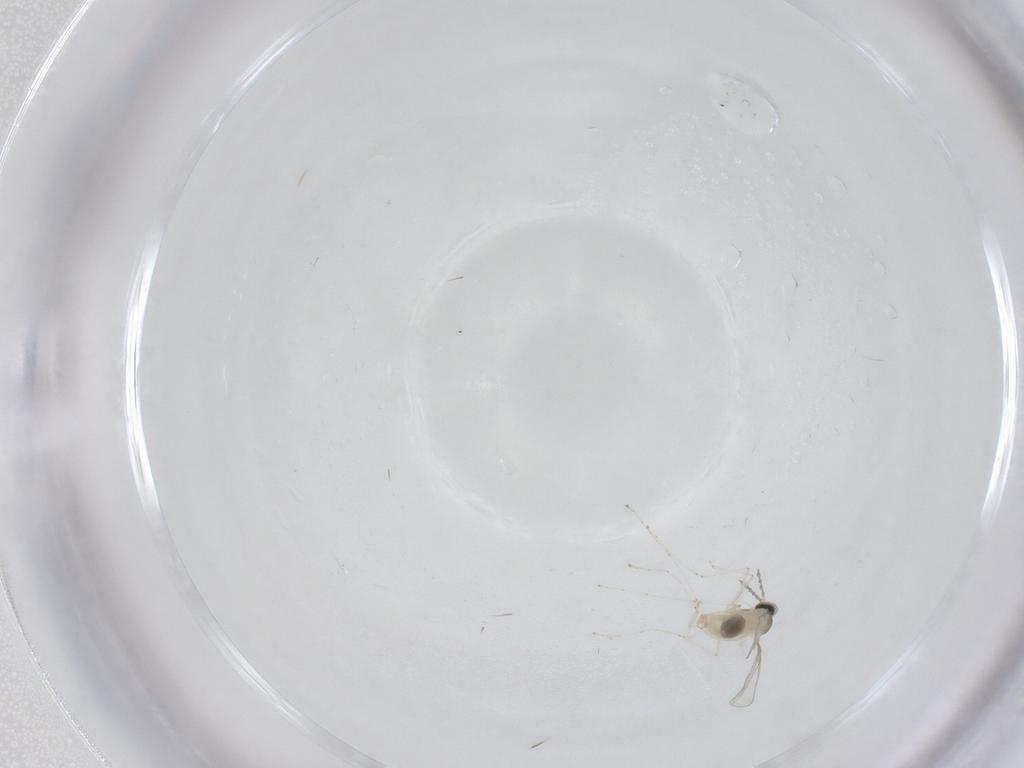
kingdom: Animalia
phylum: Arthropoda
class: Insecta
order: Diptera
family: Cecidomyiidae
